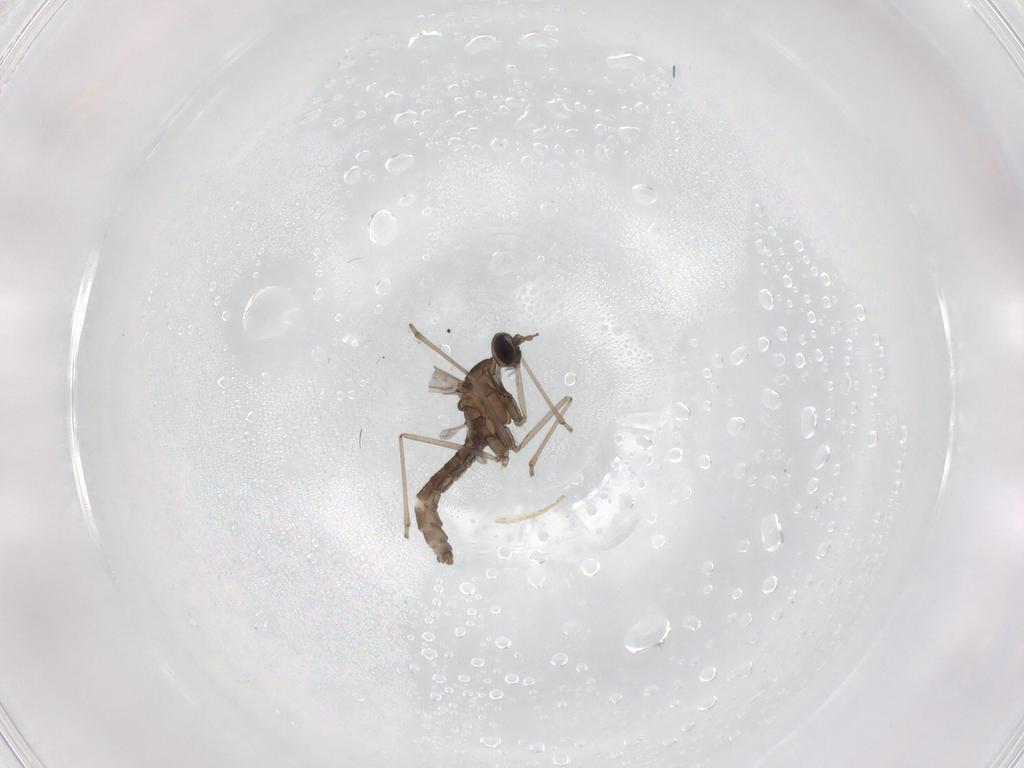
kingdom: Animalia
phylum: Arthropoda
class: Insecta
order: Diptera
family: Cecidomyiidae
